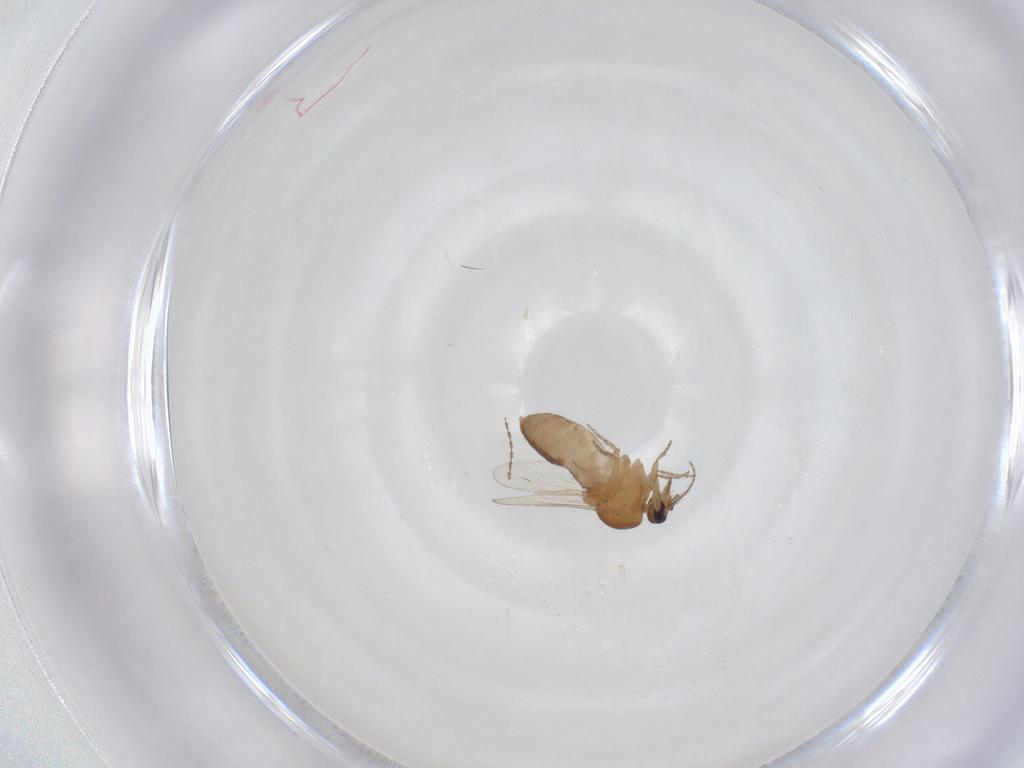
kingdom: Animalia
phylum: Arthropoda
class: Insecta
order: Diptera
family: Ceratopogonidae
